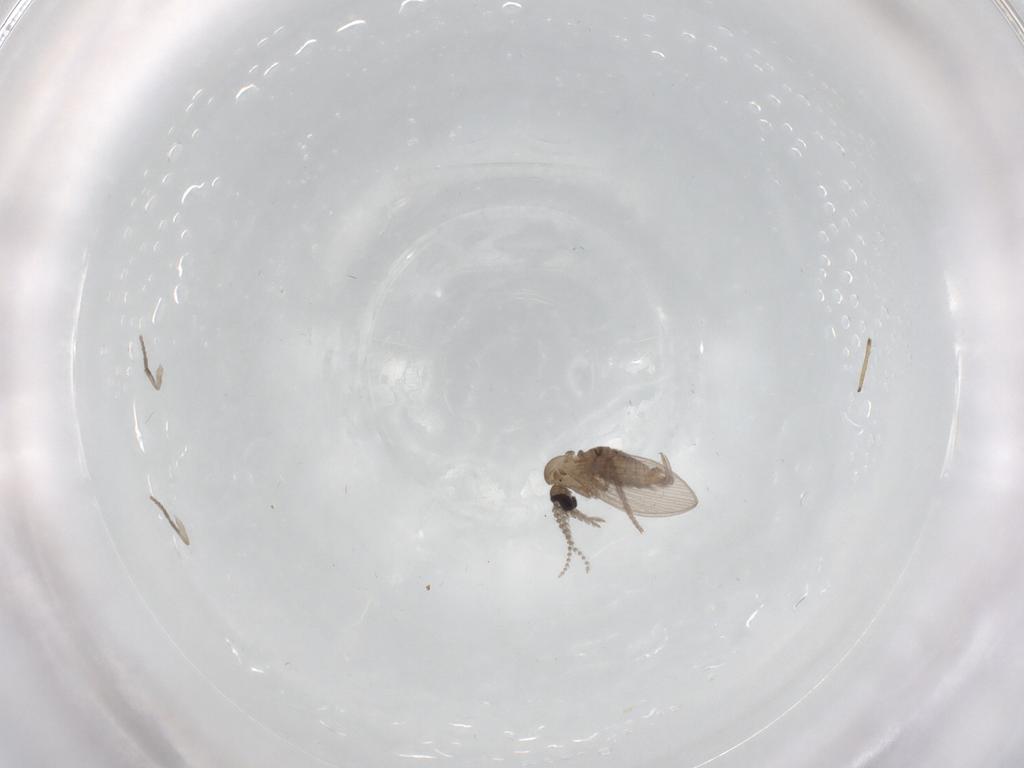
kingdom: Animalia
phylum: Arthropoda
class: Insecta
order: Diptera
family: Psychodidae
